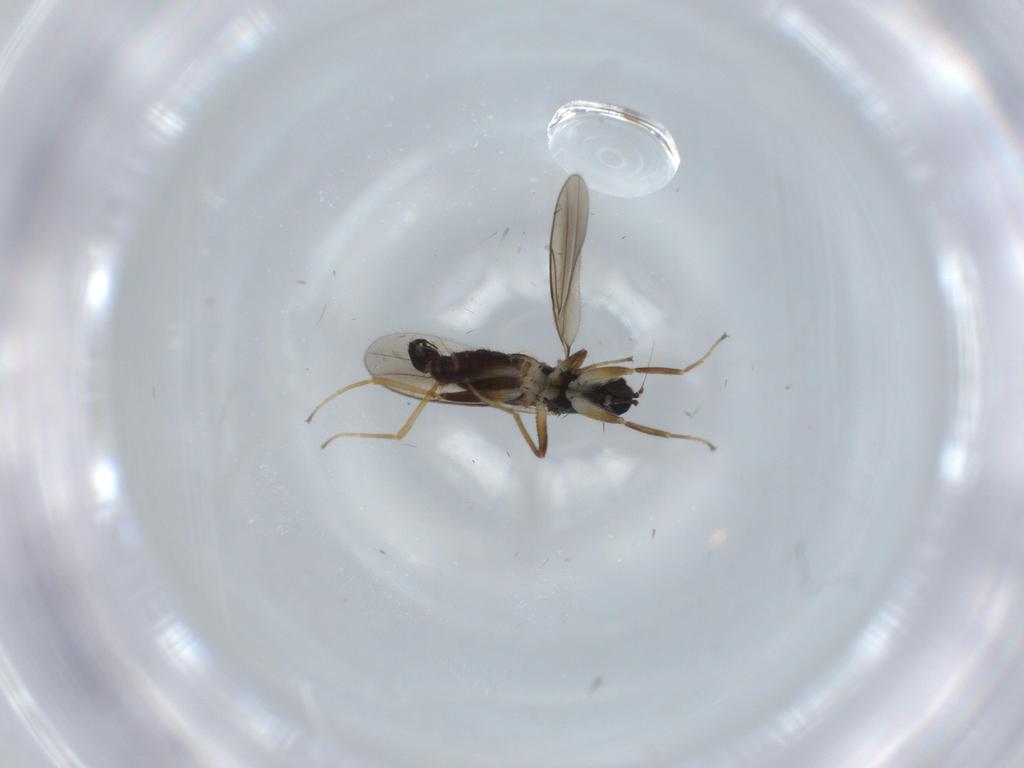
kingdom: Animalia
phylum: Arthropoda
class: Insecta
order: Diptera
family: Hybotidae
